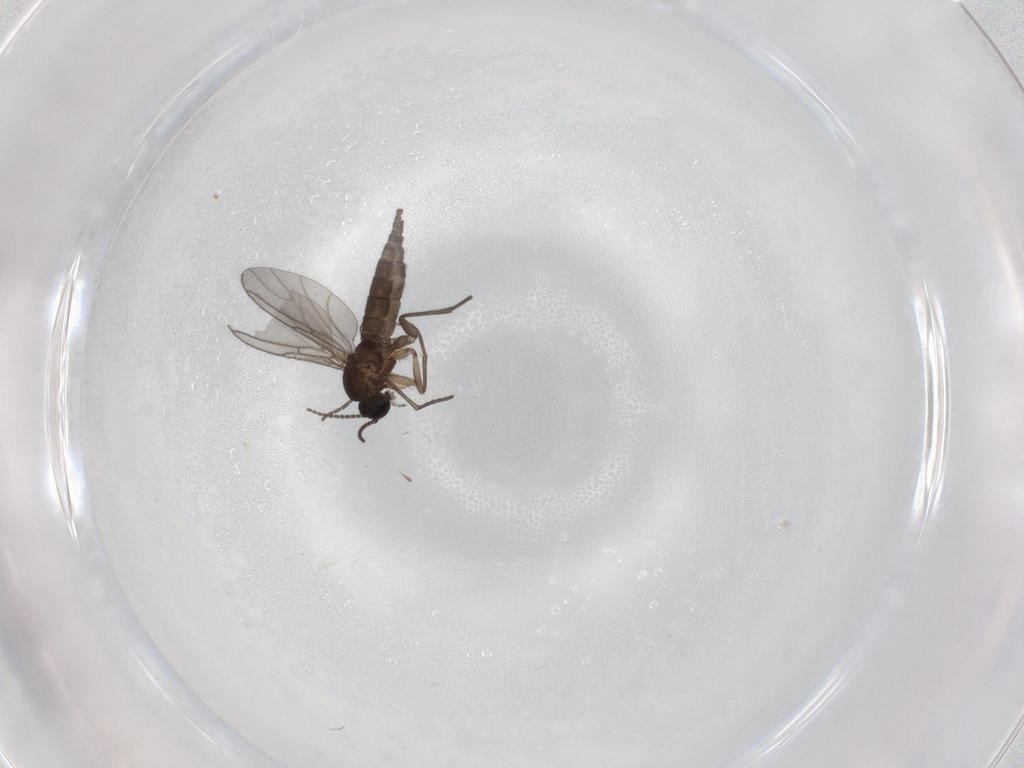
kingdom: Animalia
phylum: Arthropoda
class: Insecta
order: Diptera
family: Sciaridae
